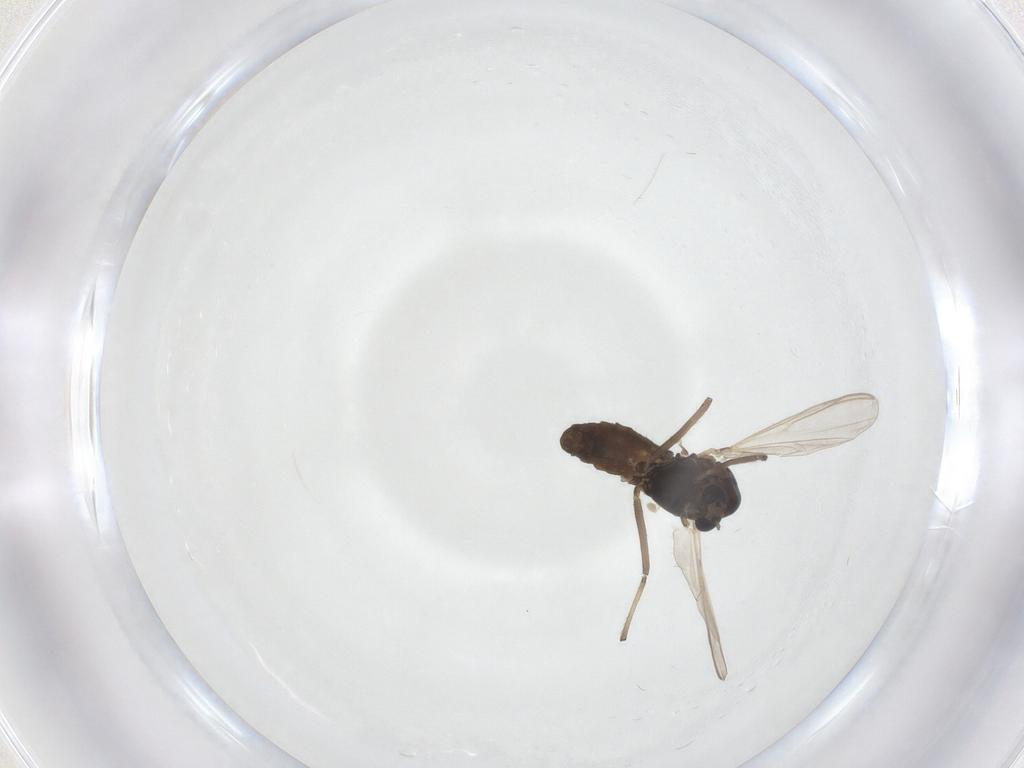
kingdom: Animalia
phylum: Arthropoda
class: Insecta
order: Diptera
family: Chironomidae
